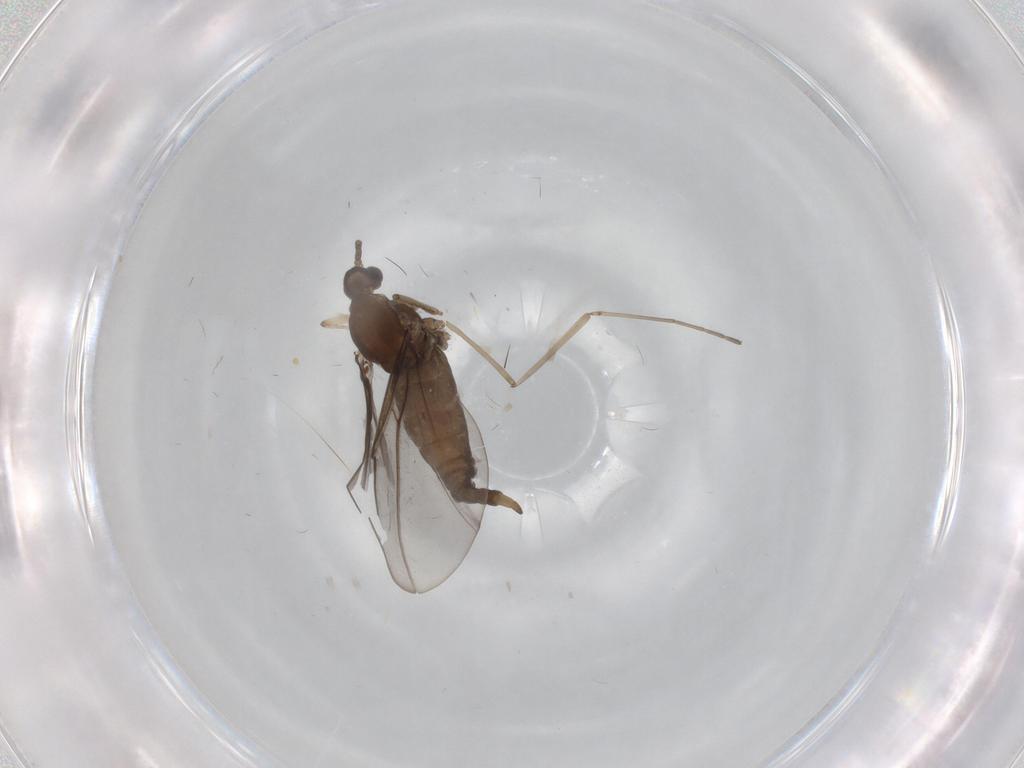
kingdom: Animalia
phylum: Arthropoda
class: Insecta
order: Diptera
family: Cecidomyiidae
